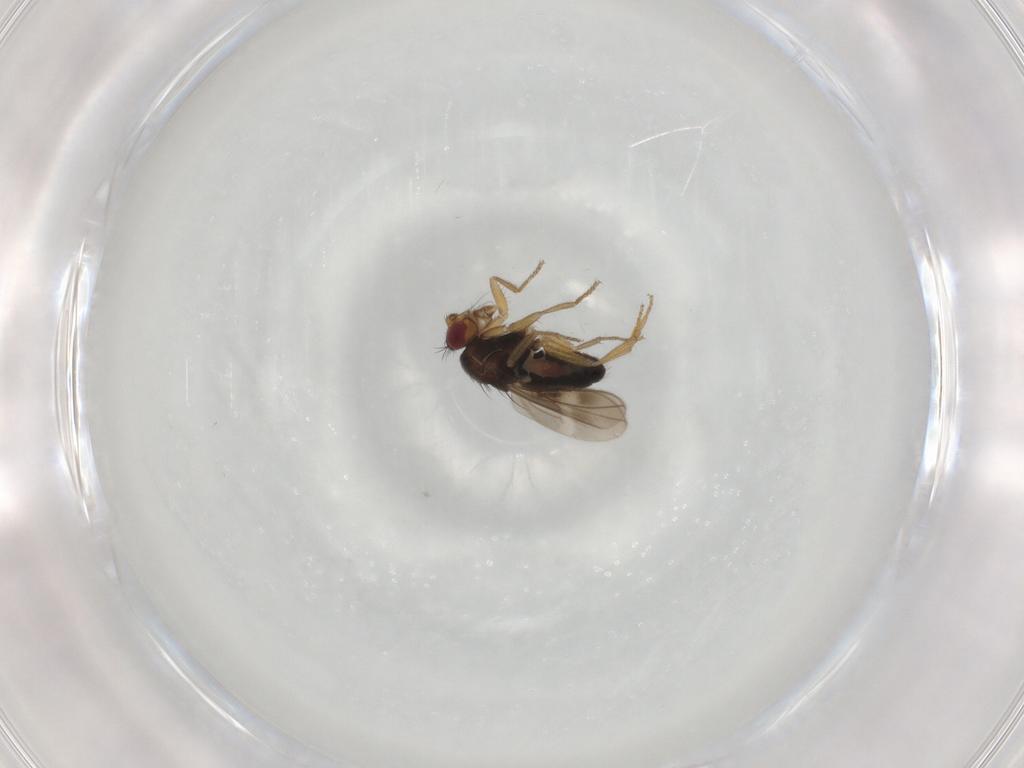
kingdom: Animalia
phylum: Arthropoda
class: Insecta
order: Diptera
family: Sphaeroceridae
